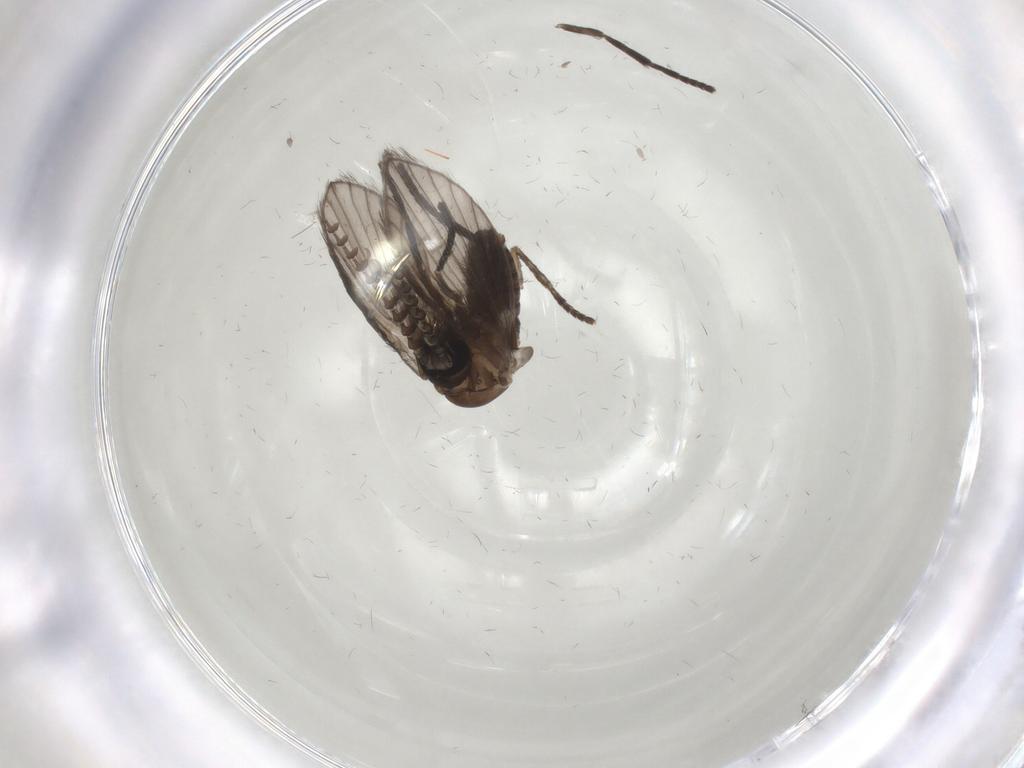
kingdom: Animalia
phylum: Arthropoda
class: Insecta
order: Diptera
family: Psychodidae
